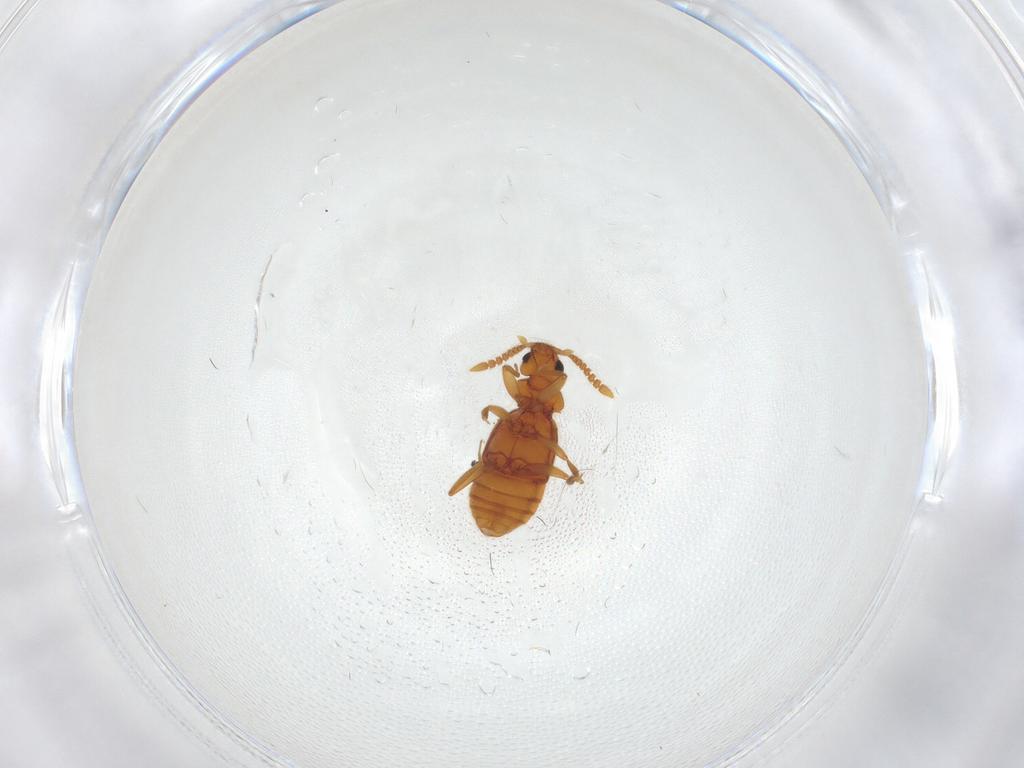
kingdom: Animalia
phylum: Arthropoda
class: Insecta
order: Coleoptera
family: Staphylinidae
